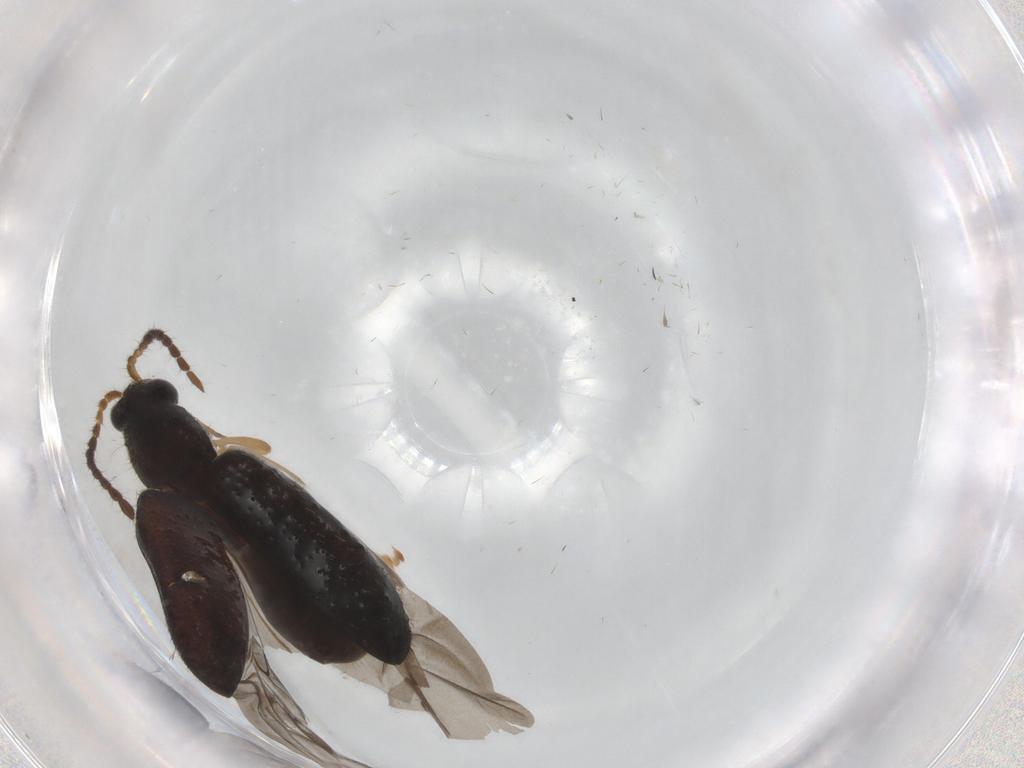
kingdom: Animalia
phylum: Arthropoda
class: Insecta
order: Coleoptera
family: Chrysomelidae
